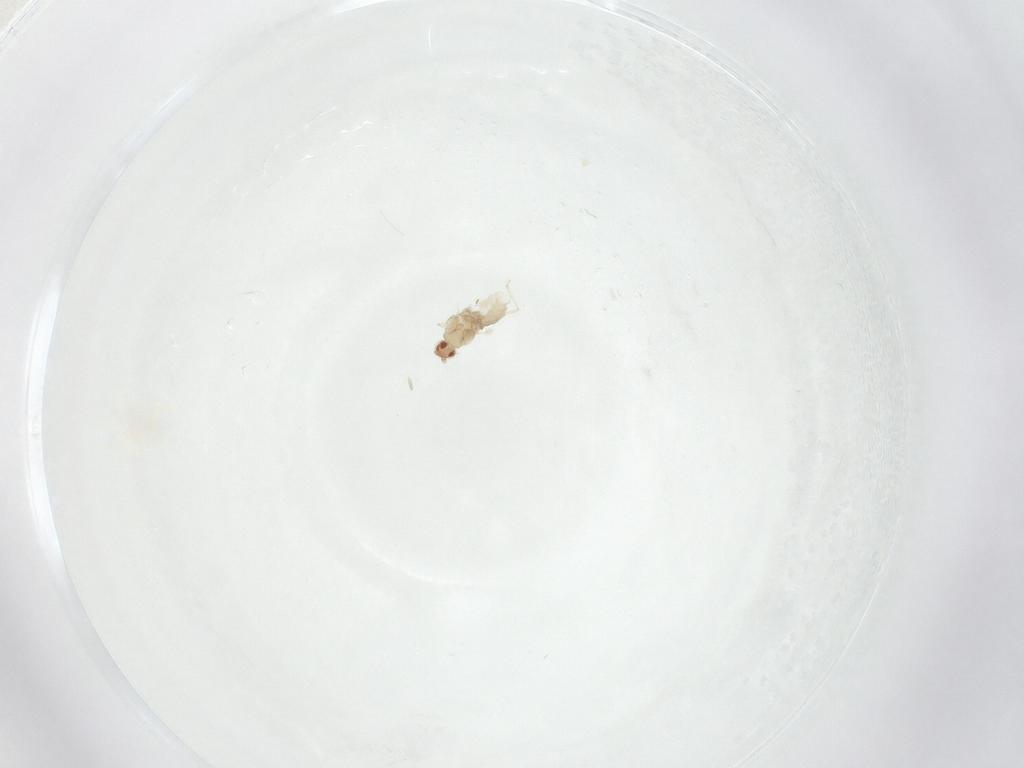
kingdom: Animalia
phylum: Arthropoda
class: Insecta
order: Diptera
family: Cecidomyiidae
